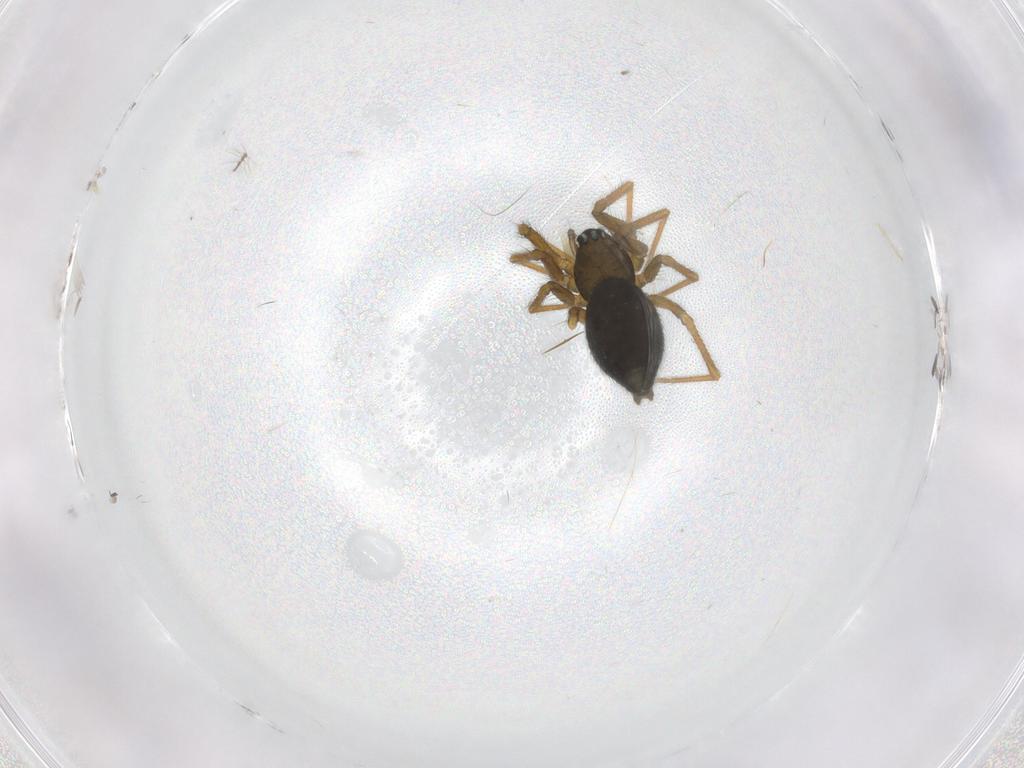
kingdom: Animalia
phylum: Arthropoda
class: Arachnida
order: Araneae
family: Linyphiidae
